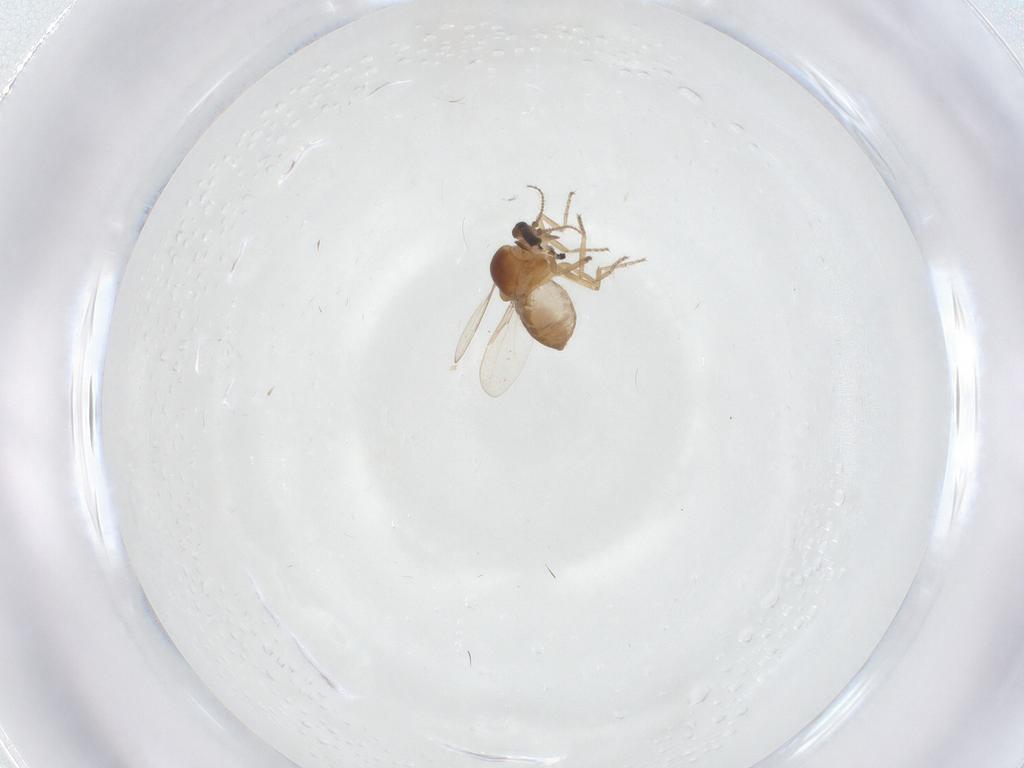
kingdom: Animalia
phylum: Arthropoda
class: Insecta
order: Diptera
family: Ceratopogonidae
